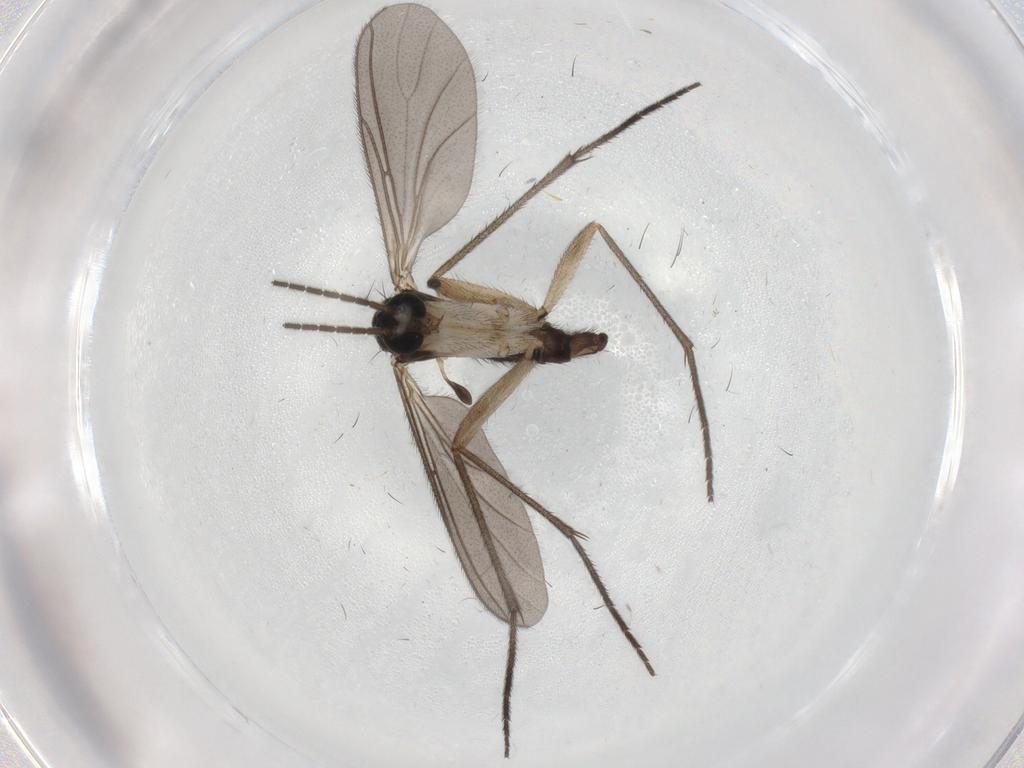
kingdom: Animalia
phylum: Arthropoda
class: Insecta
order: Diptera
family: Sciaridae
